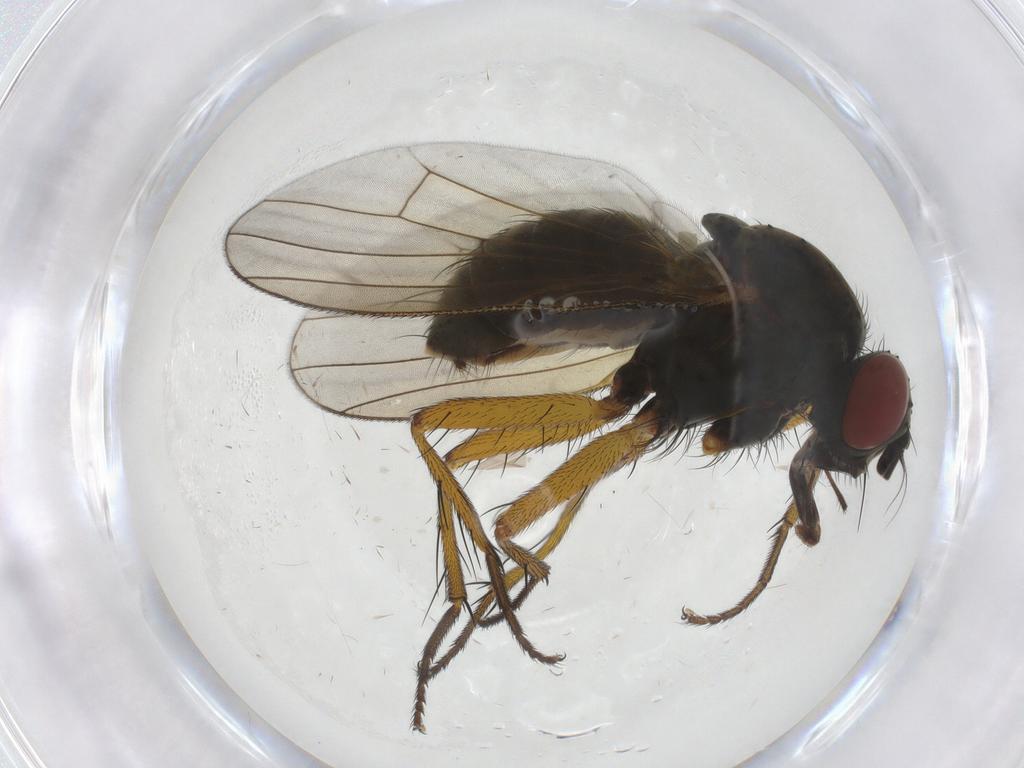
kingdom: Animalia
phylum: Arthropoda
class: Insecta
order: Diptera
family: Muscidae
